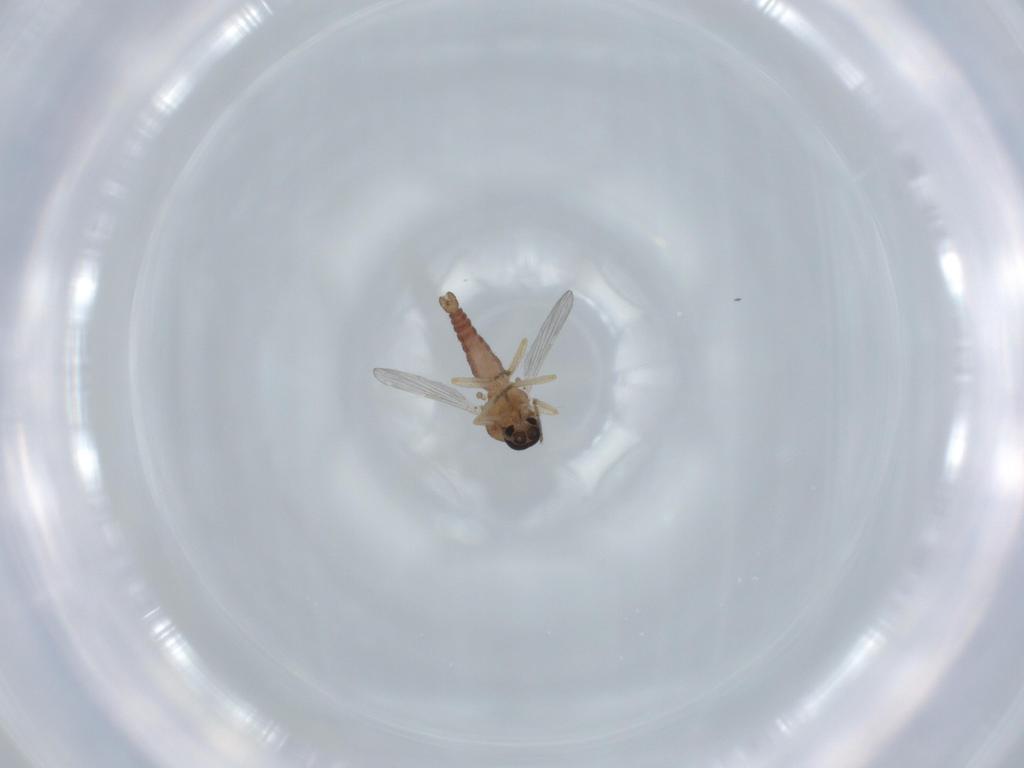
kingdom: Animalia
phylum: Arthropoda
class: Insecta
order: Diptera
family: Ceratopogonidae
